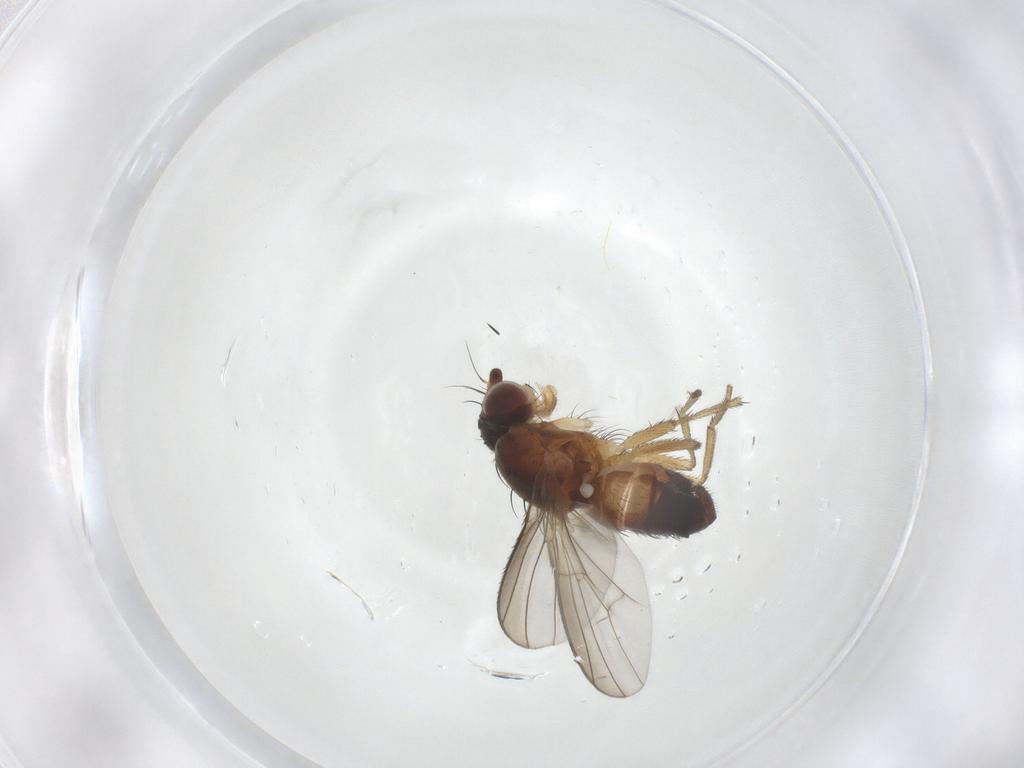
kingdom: Animalia
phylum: Arthropoda
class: Insecta
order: Diptera
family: Heleomyzidae
